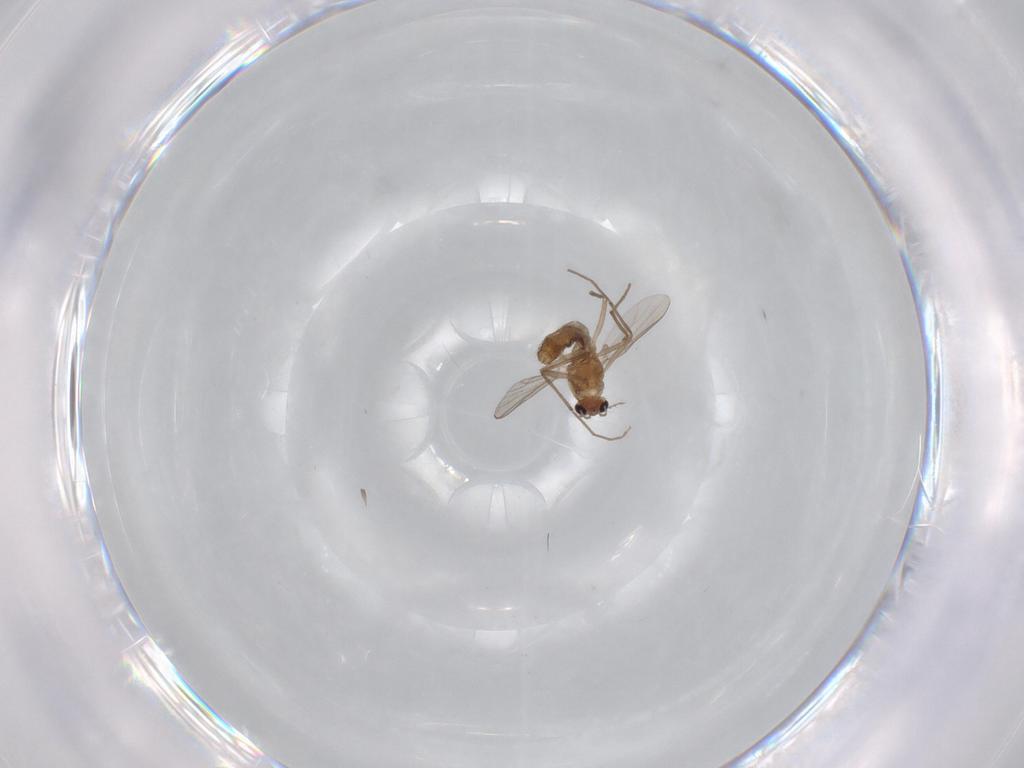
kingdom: Animalia
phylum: Arthropoda
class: Insecta
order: Diptera
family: Chironomidae
